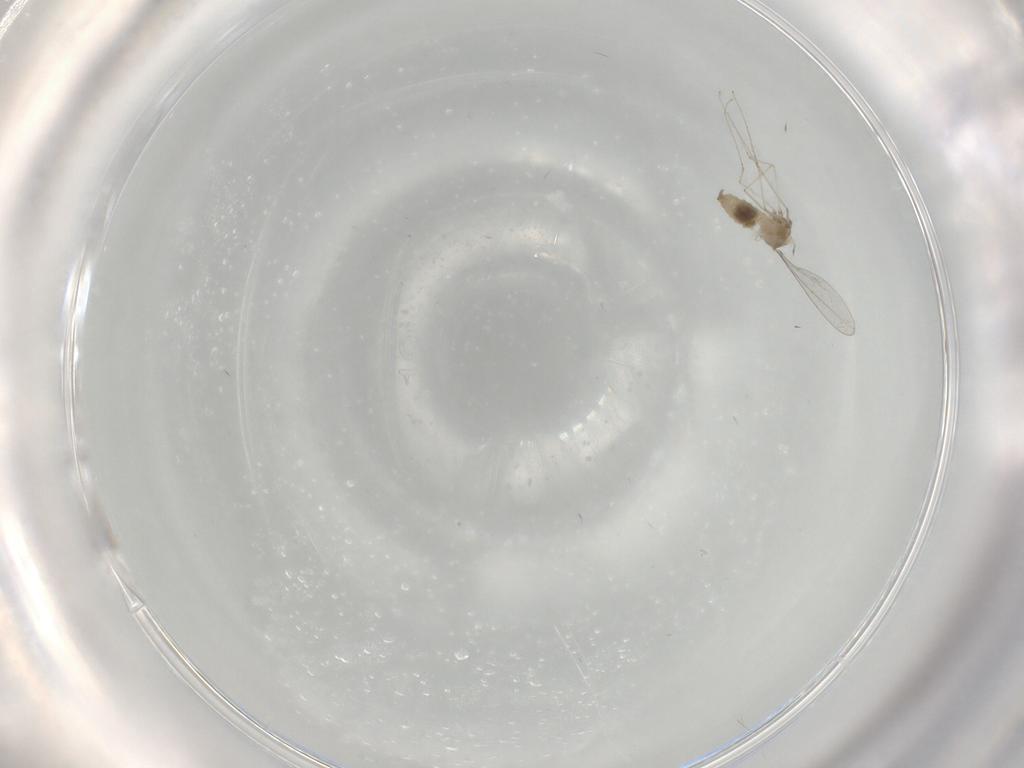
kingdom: Animalia
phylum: Arthropoda
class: Insecta
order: Diptera
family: Cecidomyiidae
